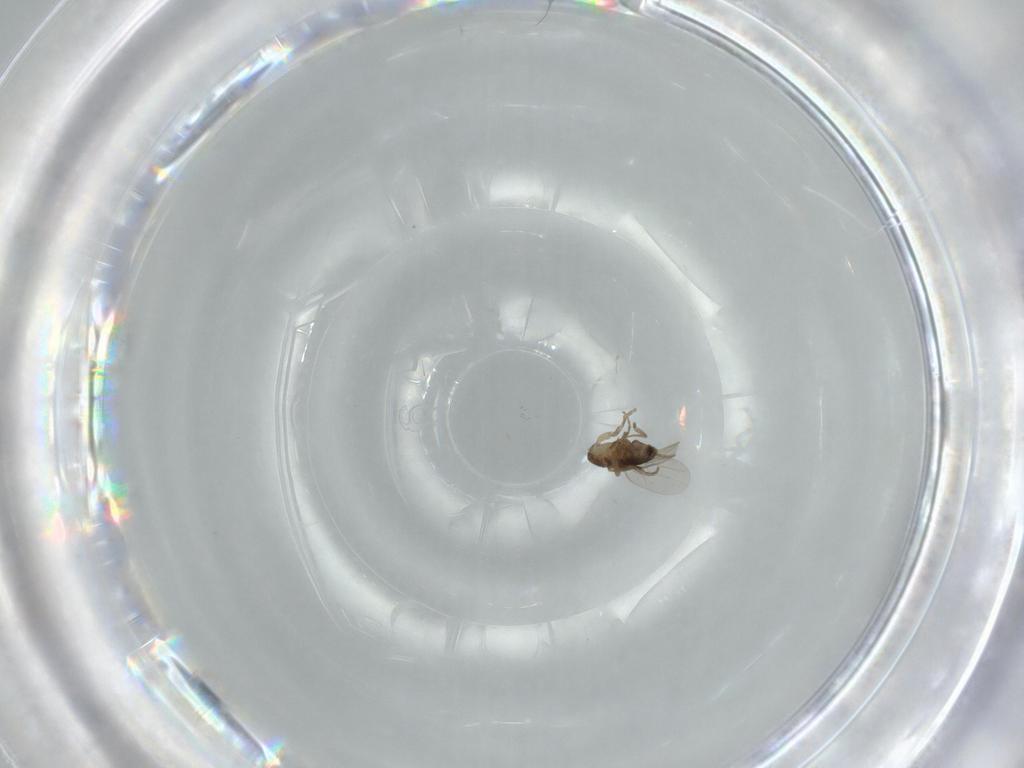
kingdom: Animalia
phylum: Arthropoda
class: Insecta
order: Diptera
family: Phoridae
